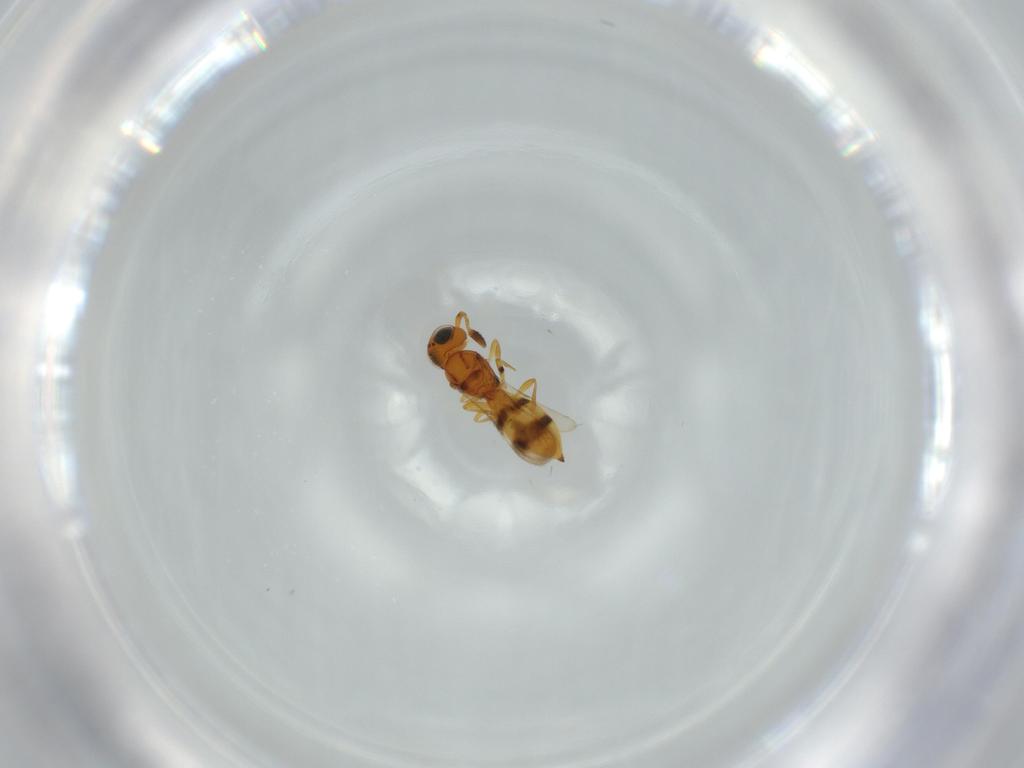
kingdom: Animalia
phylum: Arthropoda
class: Insecta
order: Hymenoptera
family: Scelionidae
